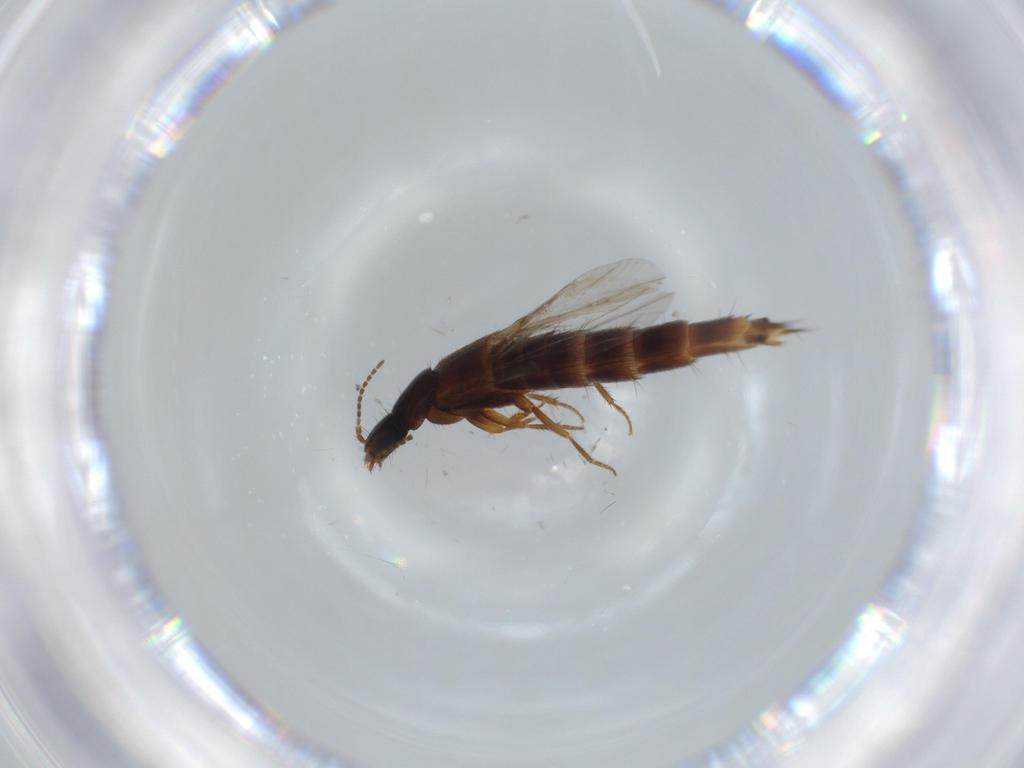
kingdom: Animalia
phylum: Arthropoda
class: Insecta
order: Coleoptera
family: Staphylinidae
